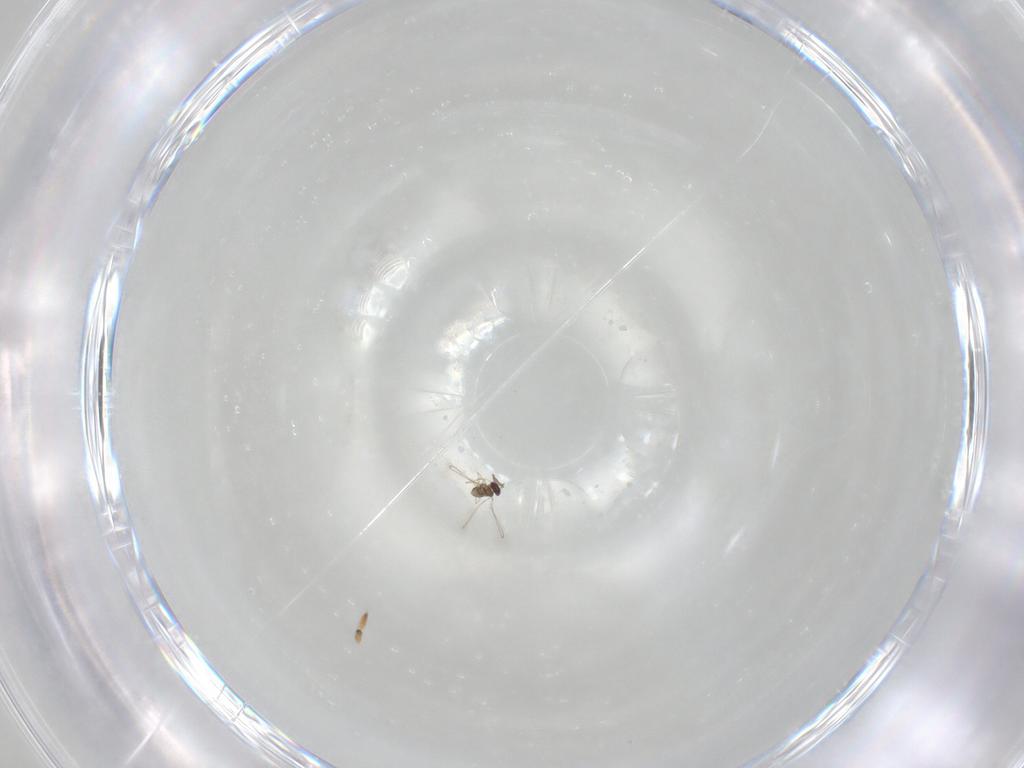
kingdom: Animalia
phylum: Arthropoda
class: Insecta
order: Hymenoptera
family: Mymaridae
